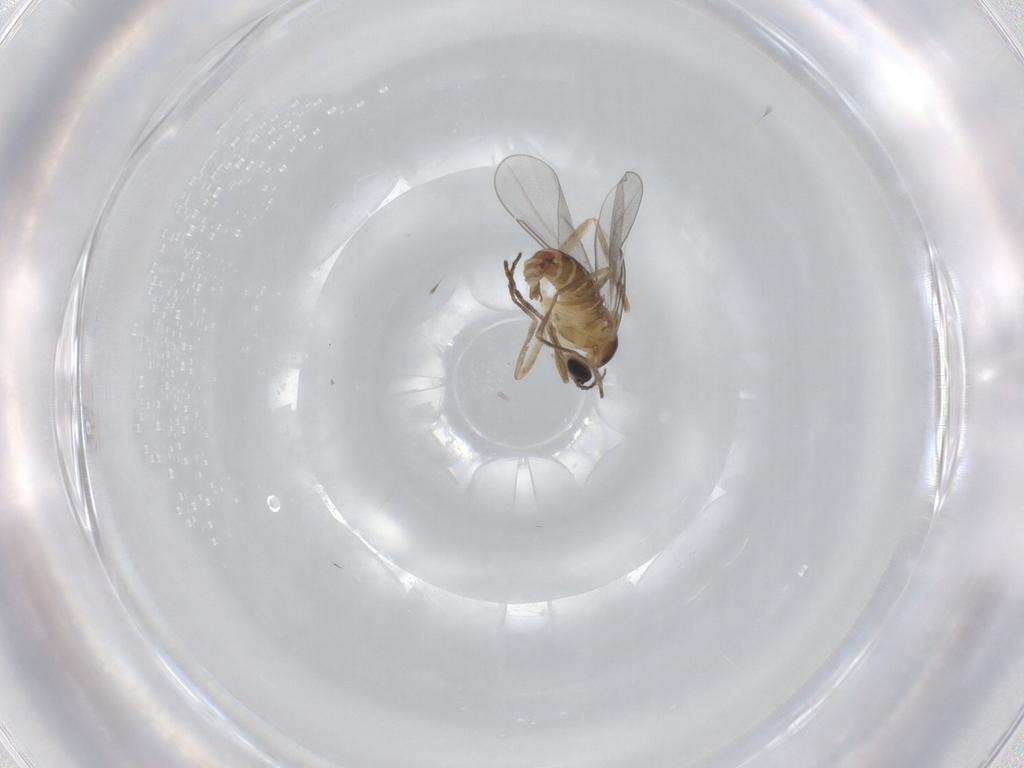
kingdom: Animalia
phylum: Arthropoda
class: Insecta
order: Diptera
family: Cecidomyiidae
